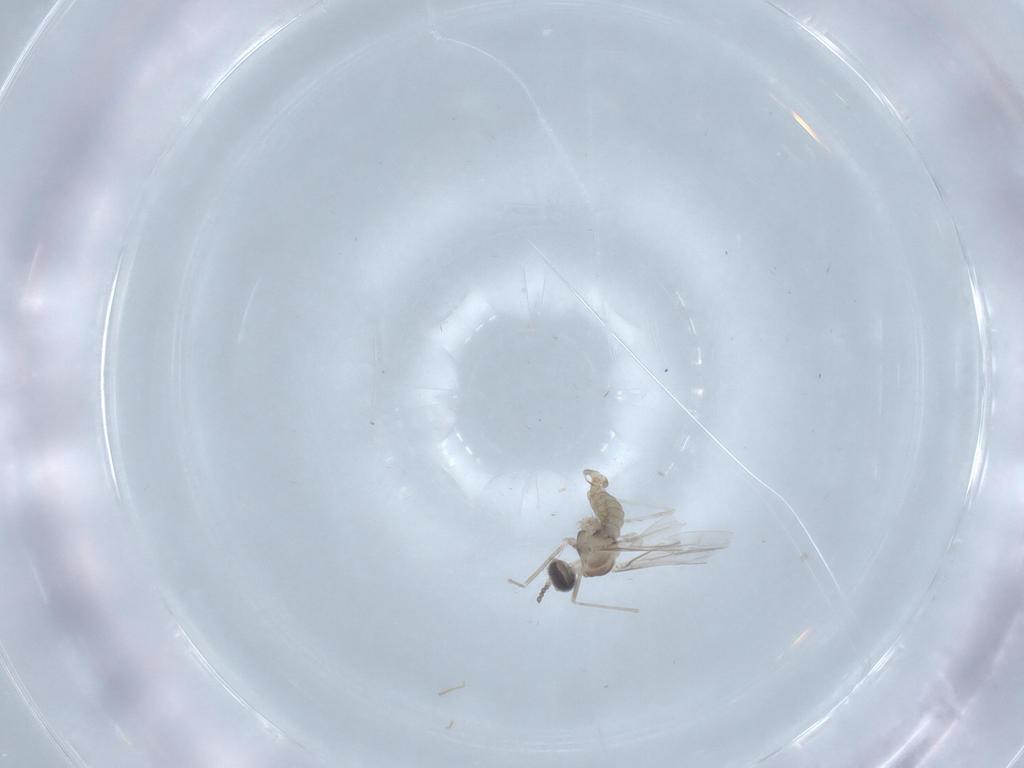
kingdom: Animalia
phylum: Arthropoda
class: Insecta
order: Diptera
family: Cecidomyiidae
